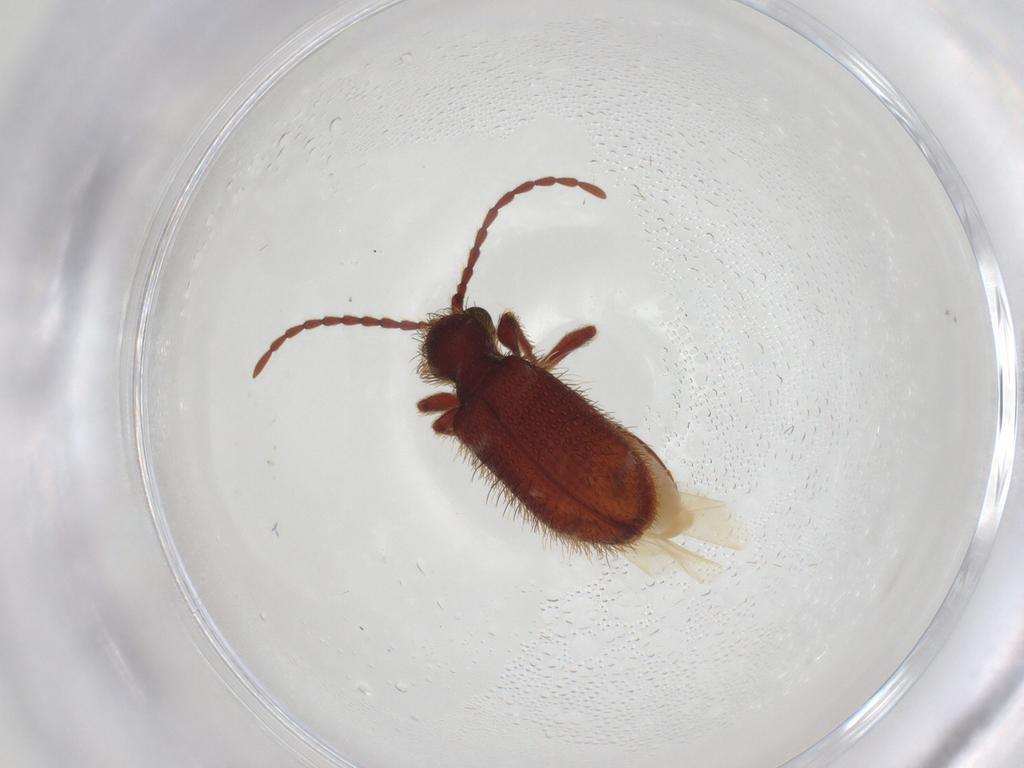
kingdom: Animalia
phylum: Arthropoda
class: Insecta
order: Coleoptera
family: Ptinidae
